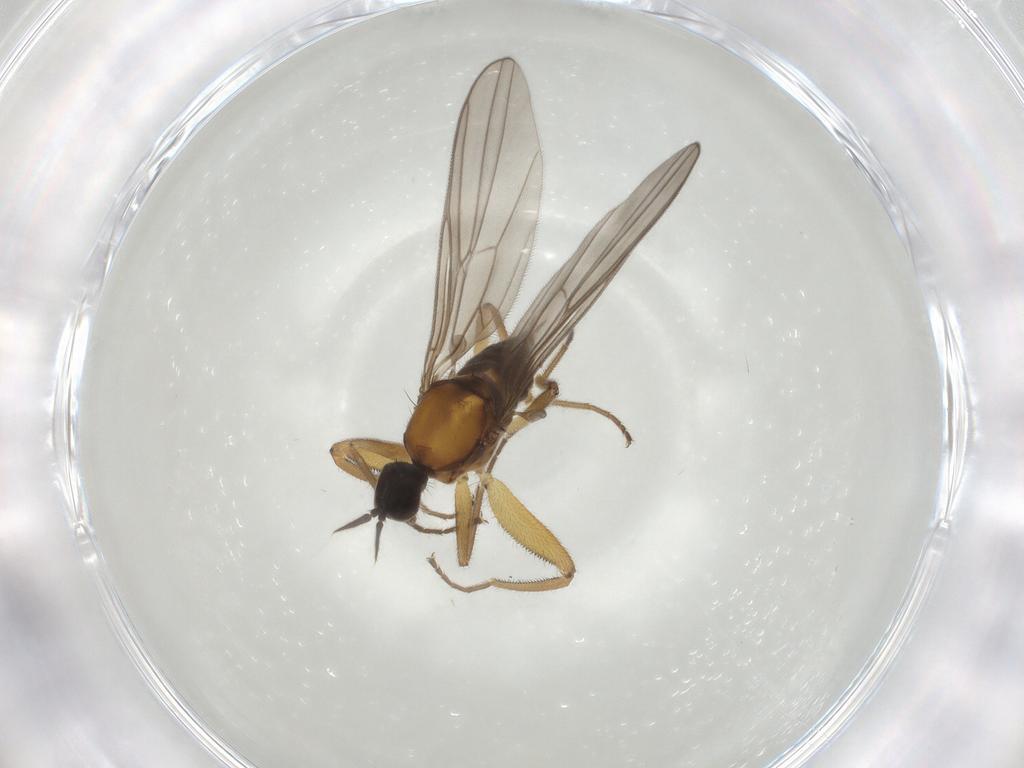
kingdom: Animalia
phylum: Arthropoda
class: Insecta
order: Diptera
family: Hybotidae
